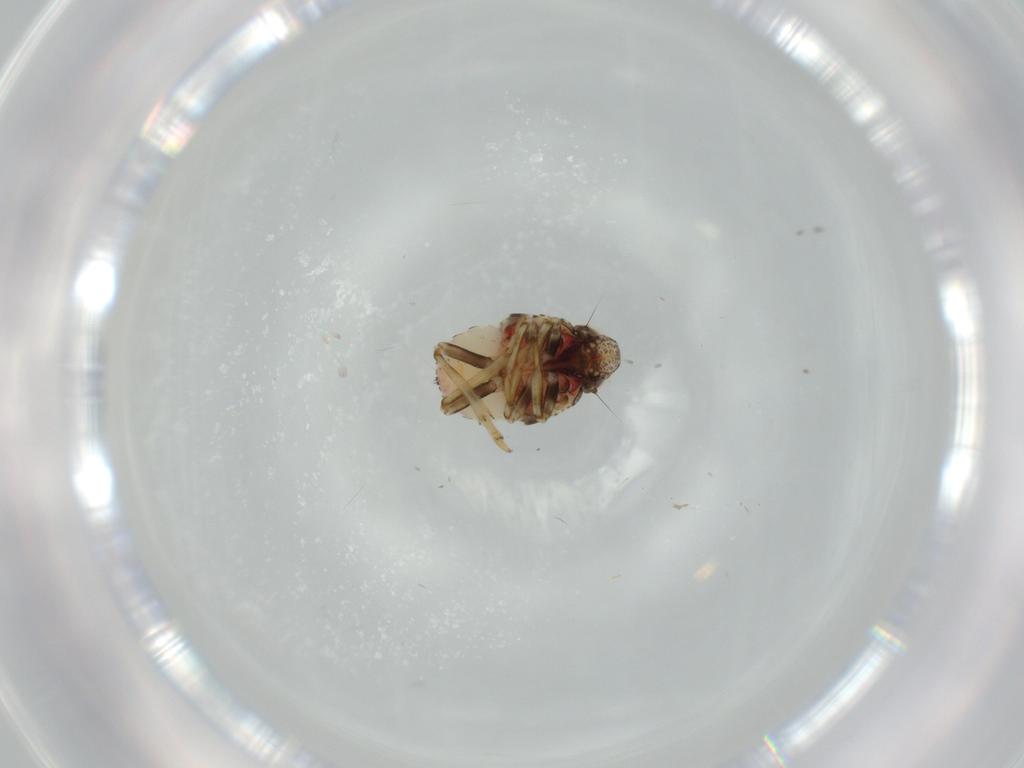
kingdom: Animalia
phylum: Arthropoda
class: Insecta
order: Hemiptera
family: Issidae
